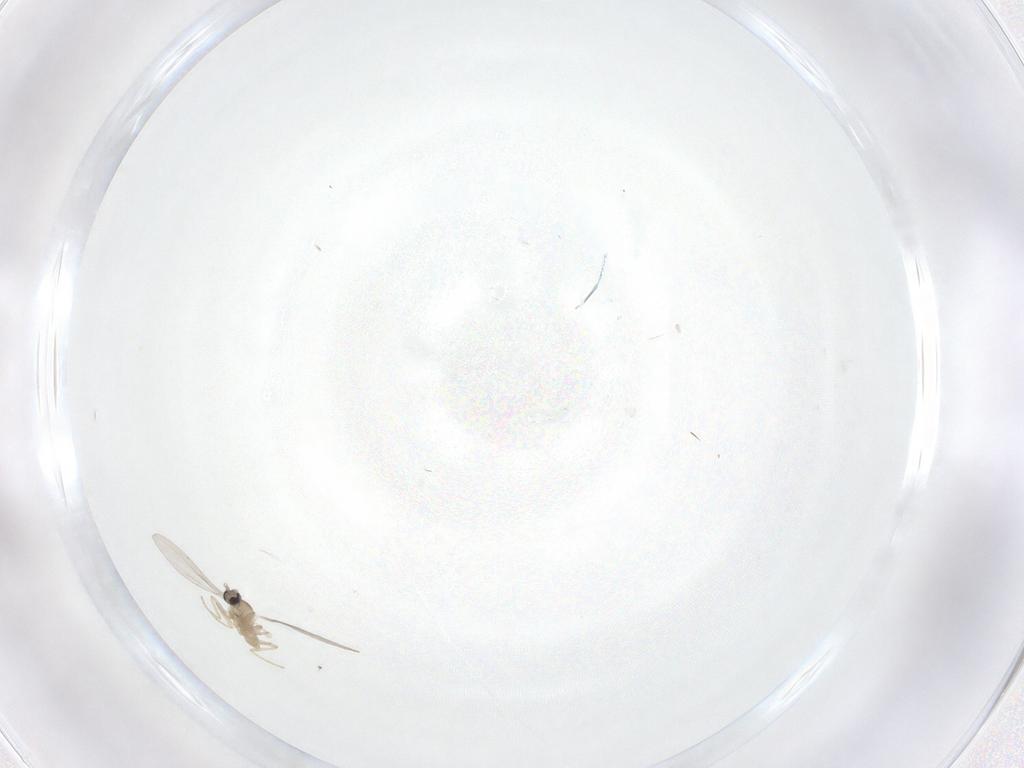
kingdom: Animalia
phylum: Arthropoda
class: Insecta
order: Diptera
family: Cecidomyiidae
